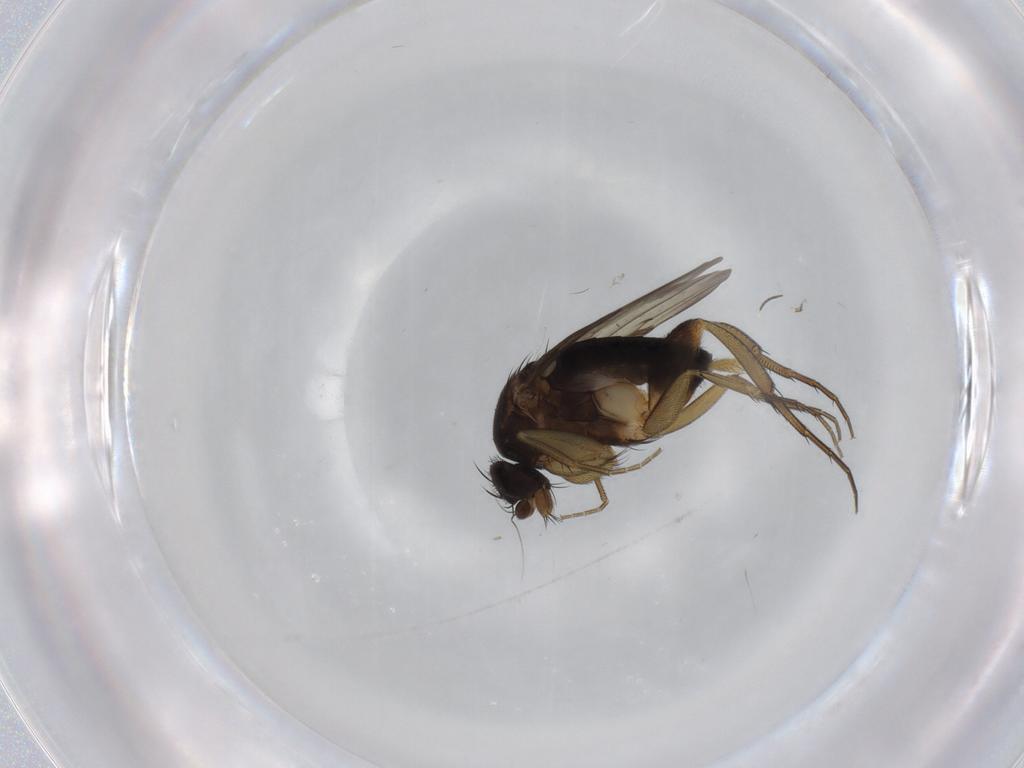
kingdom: Animalia
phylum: Arthropoda
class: Insecta
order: Diptera
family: Phoridae
